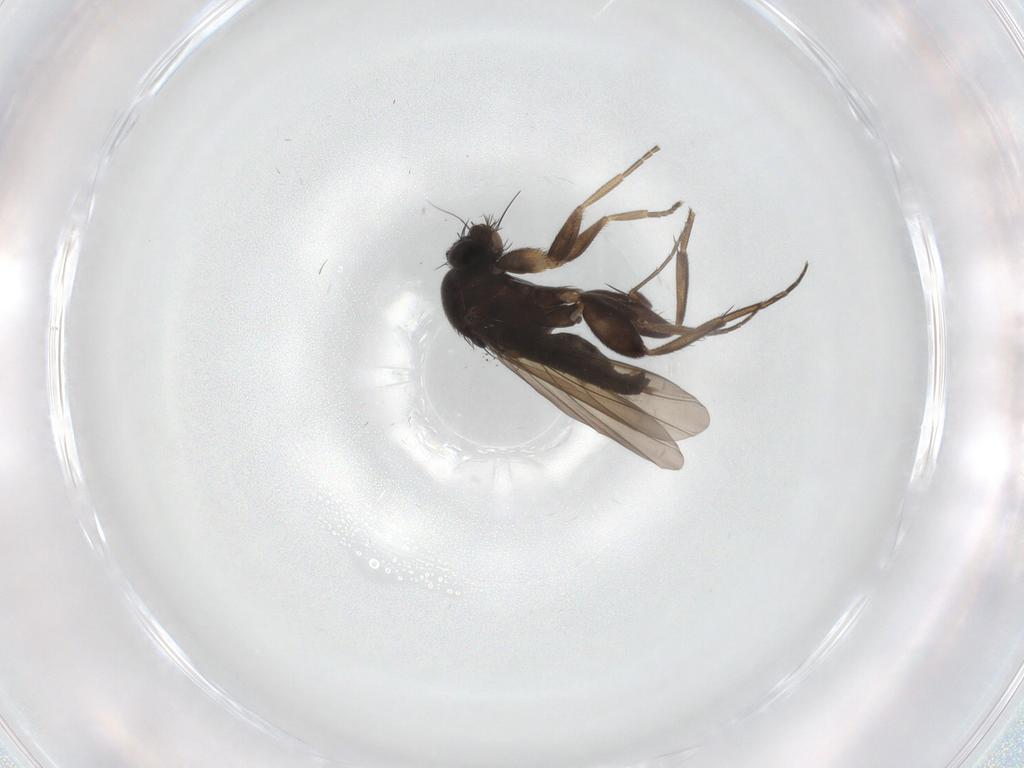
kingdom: Animalia
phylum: Arthropoda
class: Insecta
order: Diptera
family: Phoridae
